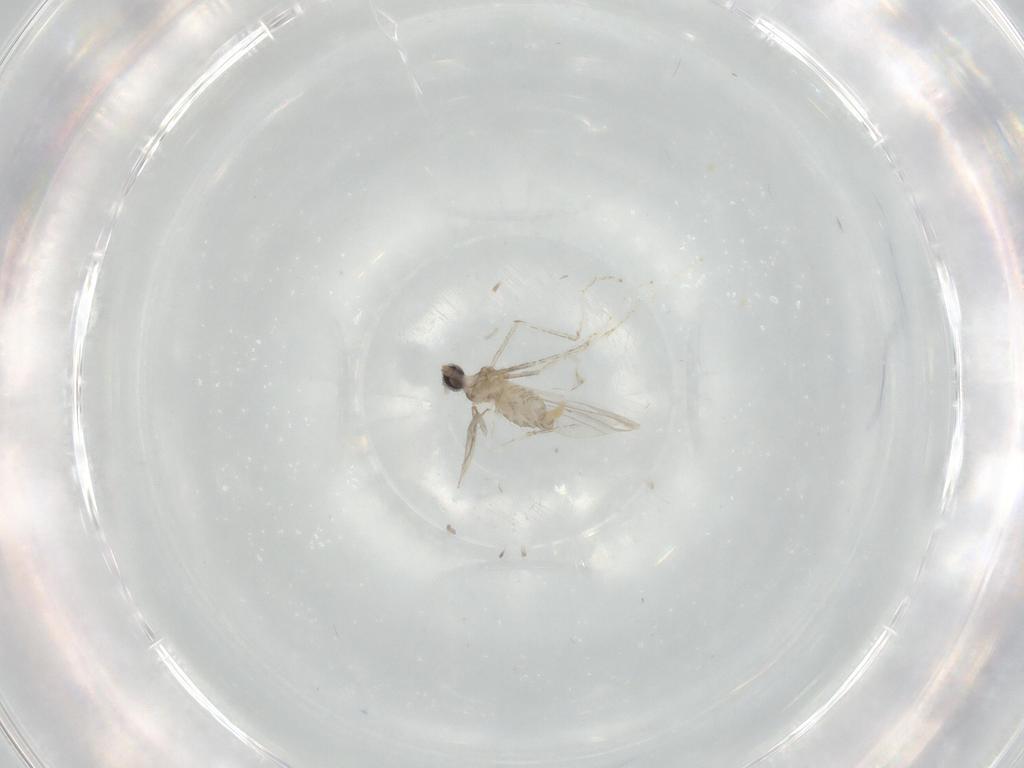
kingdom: Animalia
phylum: Arthropoda
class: Insecta
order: Diptera
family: Cecidomyiidae
